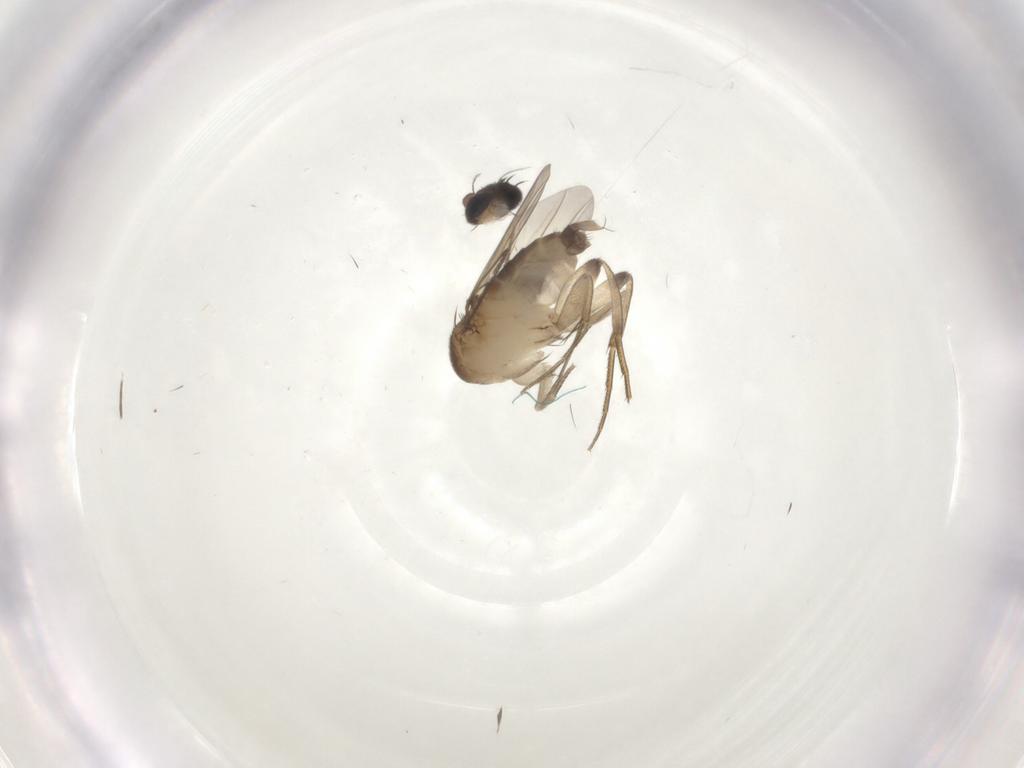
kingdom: Animalia
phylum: Arthropoda
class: Insecta
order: Diptera
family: Phoridae
